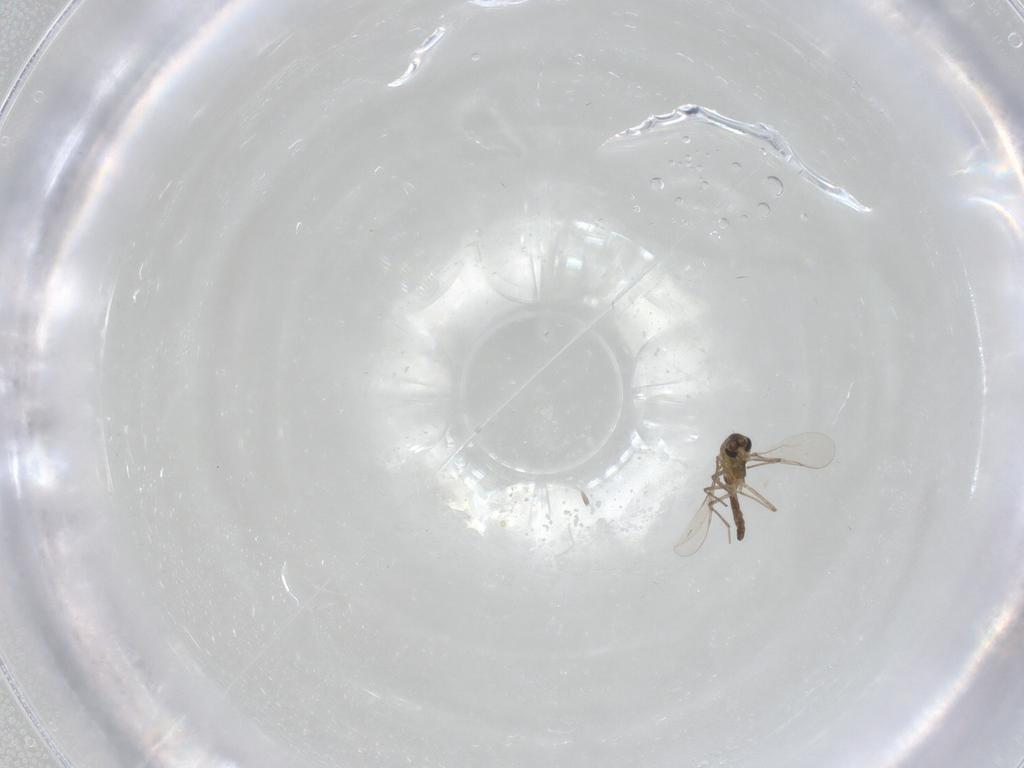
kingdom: Animalia
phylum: Arthropoda
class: Insecta
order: Diptera
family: Chironomidae
